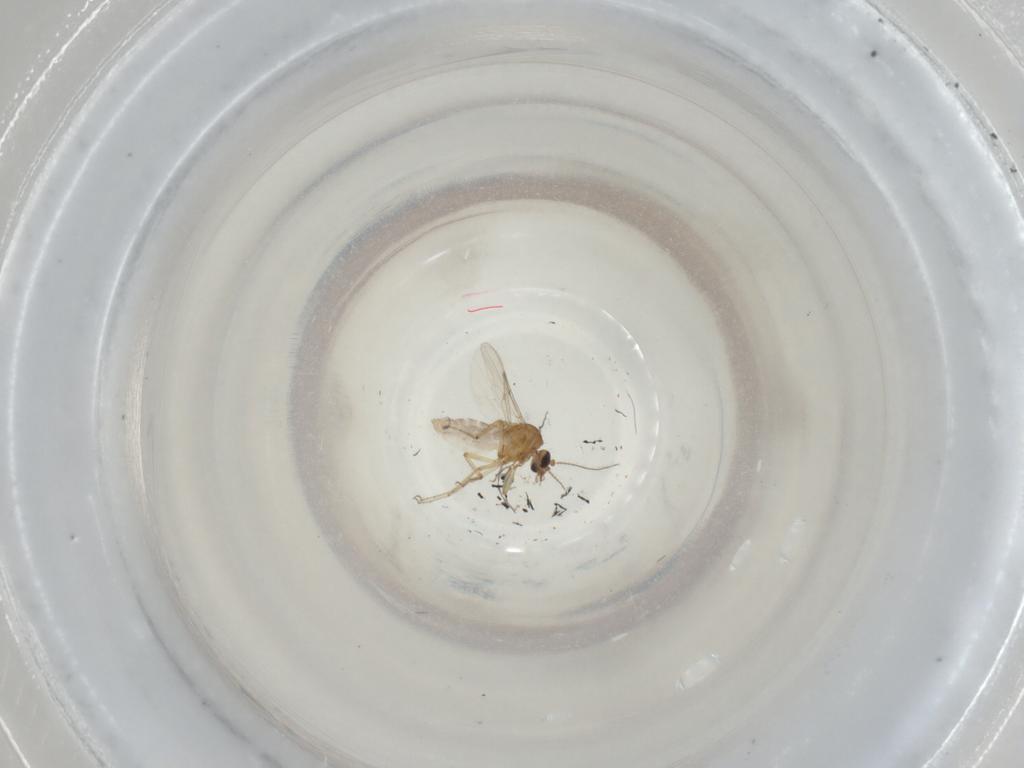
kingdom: Animalia
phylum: Arthropoda
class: Insecta
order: Diptera
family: Ceratopogonidae
